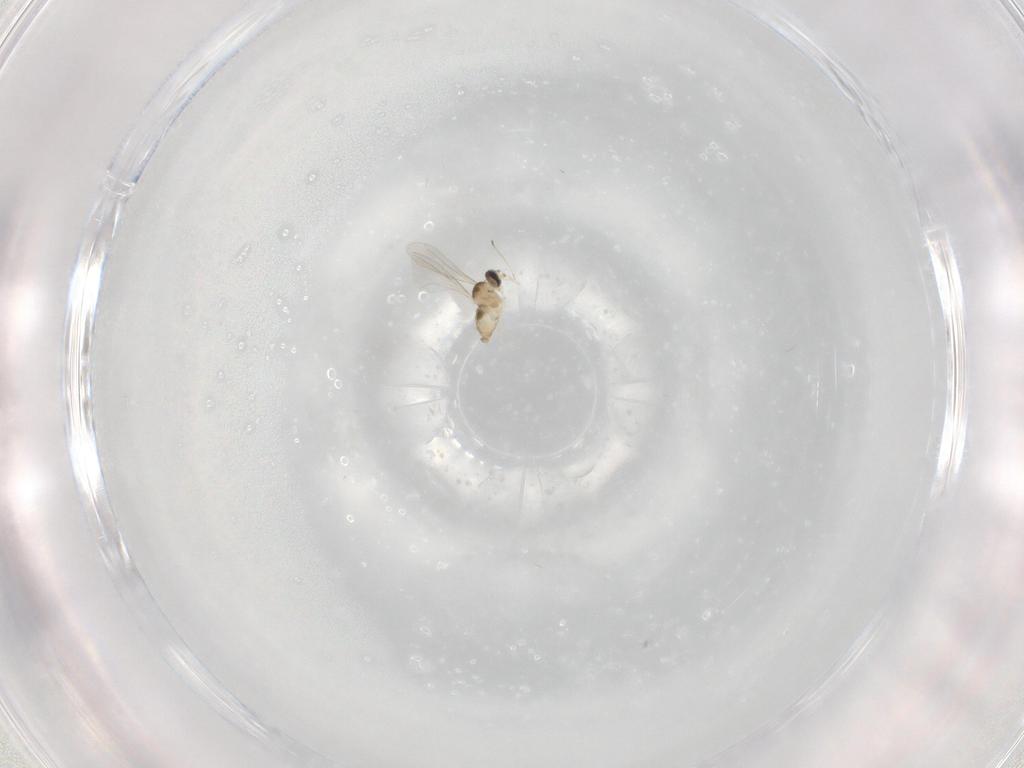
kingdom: Animalia
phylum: Arthropoda
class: Insecta
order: Diptera
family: Cecidomyiidae
